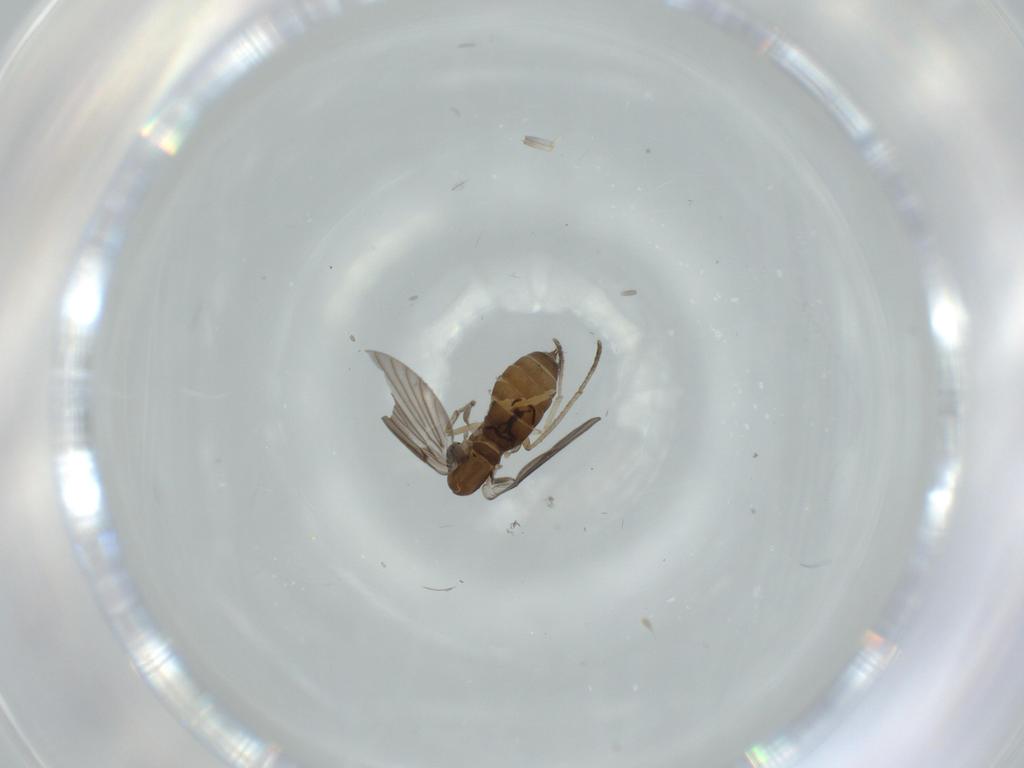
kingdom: Animalia
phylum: Arthropoda
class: Insecta
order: Diptera
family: Psychodidae
